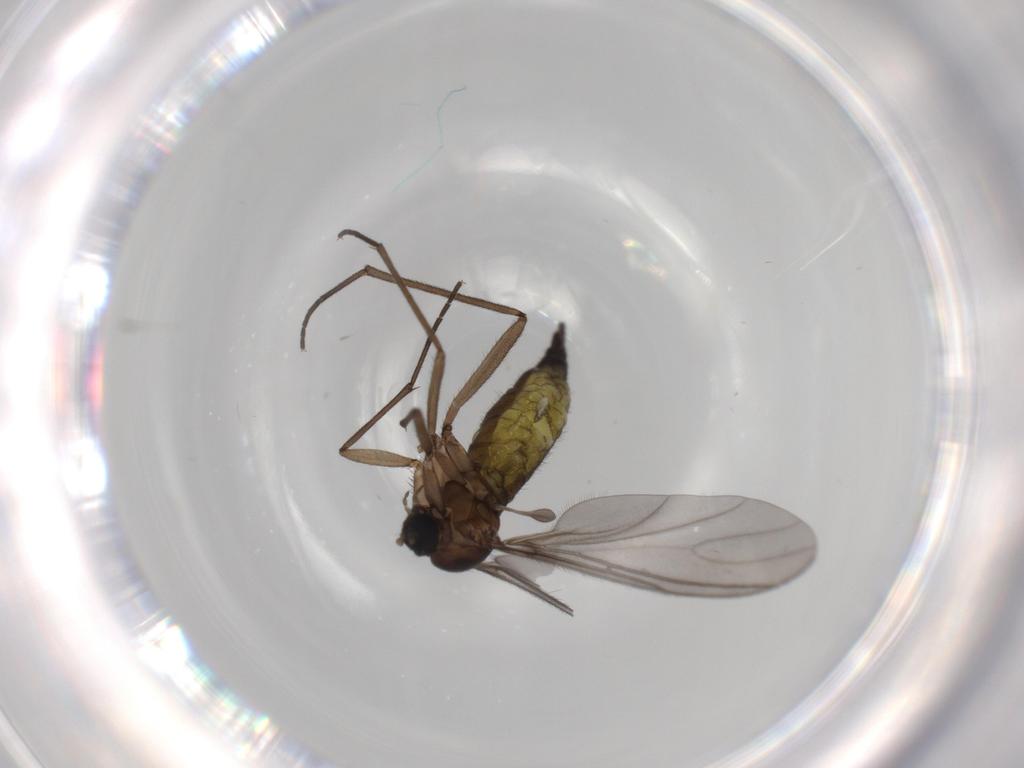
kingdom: Animalia
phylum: Arthropoda
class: Insecta
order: Diptera
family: Sciaridae
